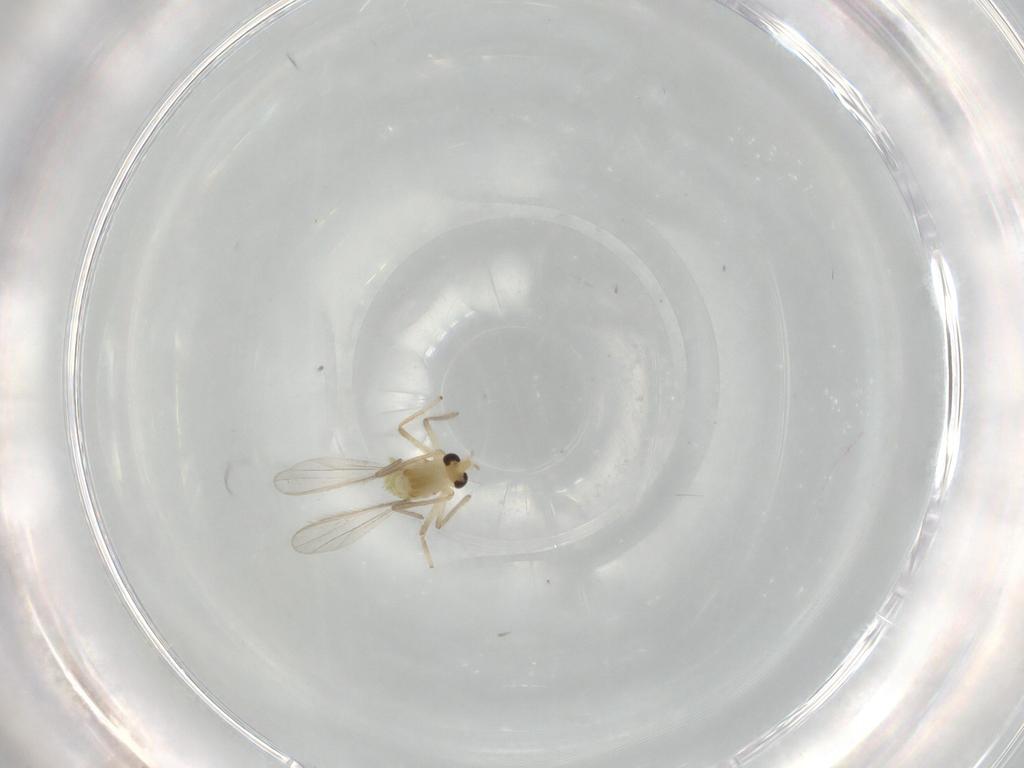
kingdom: Animalia
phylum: Arthropoda
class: Insecta
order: Diptera
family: Chironomidae
